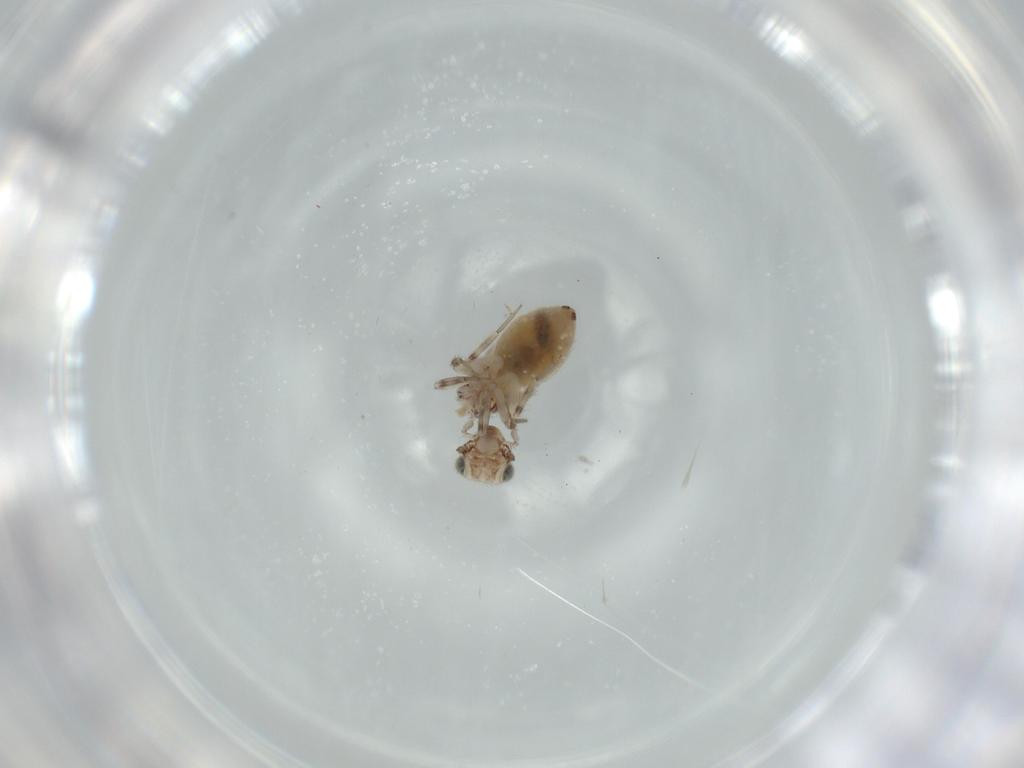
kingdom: Animalia
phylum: Arthropoda
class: Insecta
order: Psocodea
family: Lepidopsocidae
